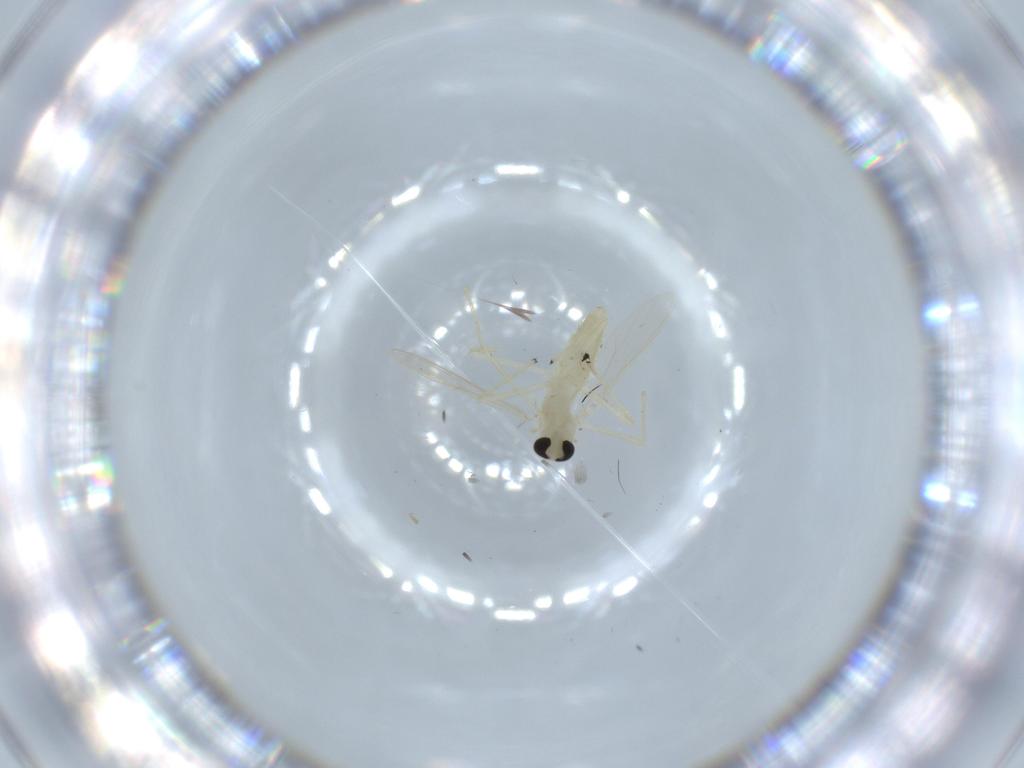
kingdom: Animalia
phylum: Arthropoda
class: Insecta
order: Diptera
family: Chironomidae
